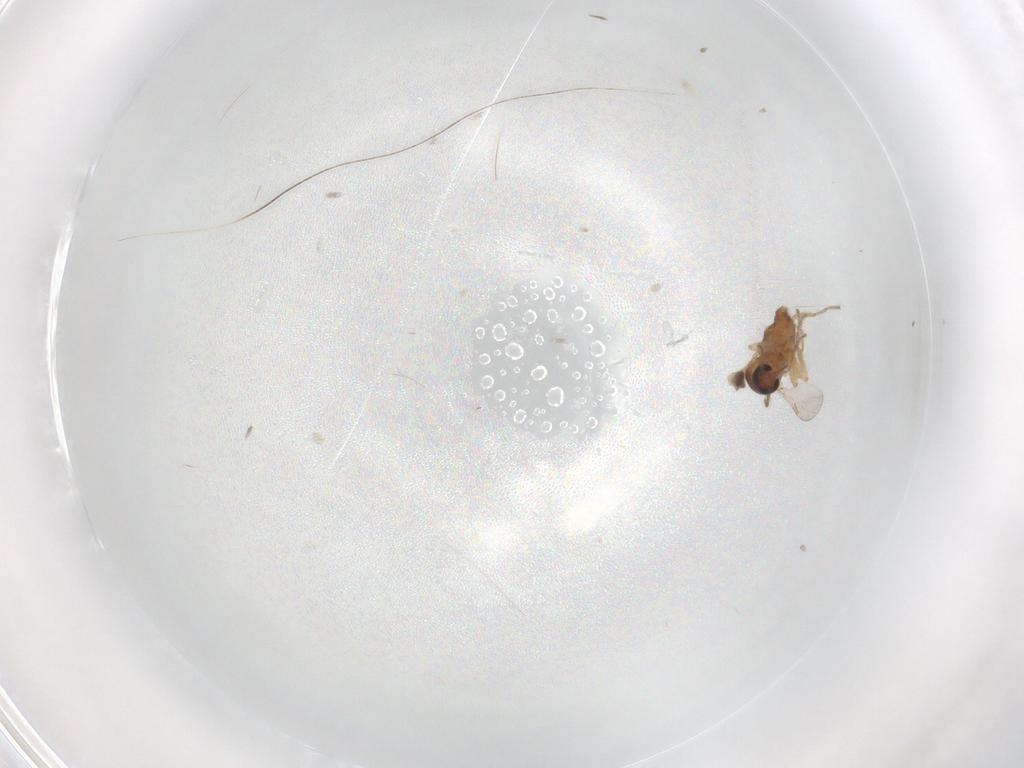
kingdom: Animalia
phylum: Arthropoda
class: Insecta
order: Diptera
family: Ceratopogonidae
